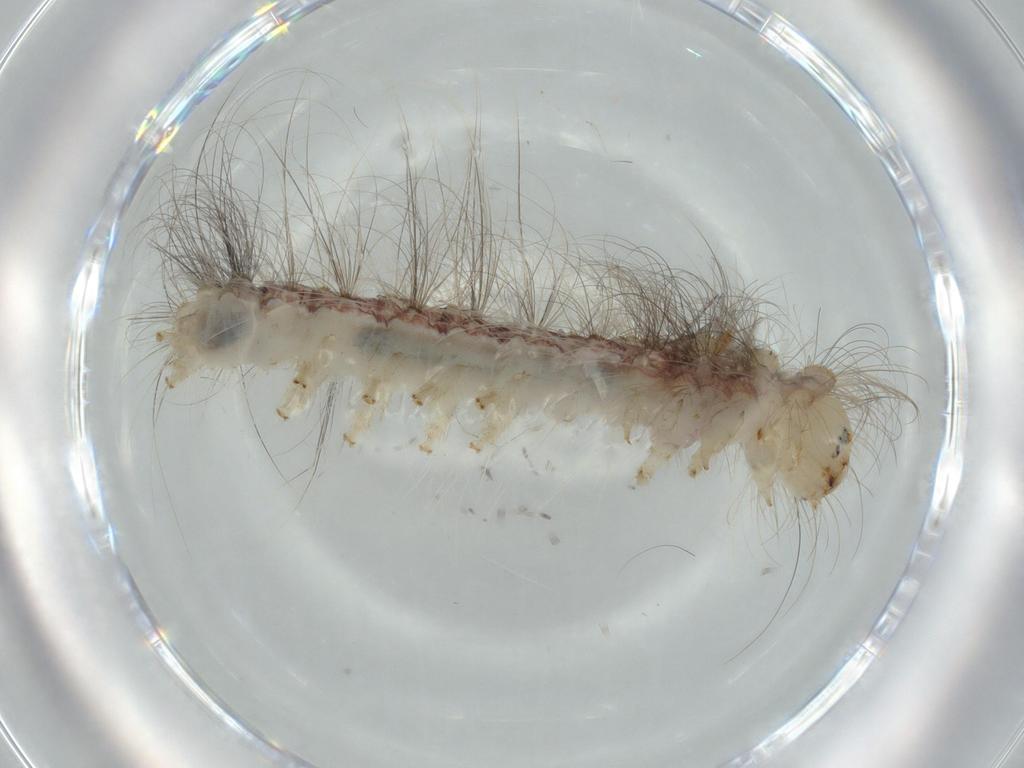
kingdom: Animalia
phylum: Arthropoda
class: Insecta
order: Lepidoptera
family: Apatelodidae
